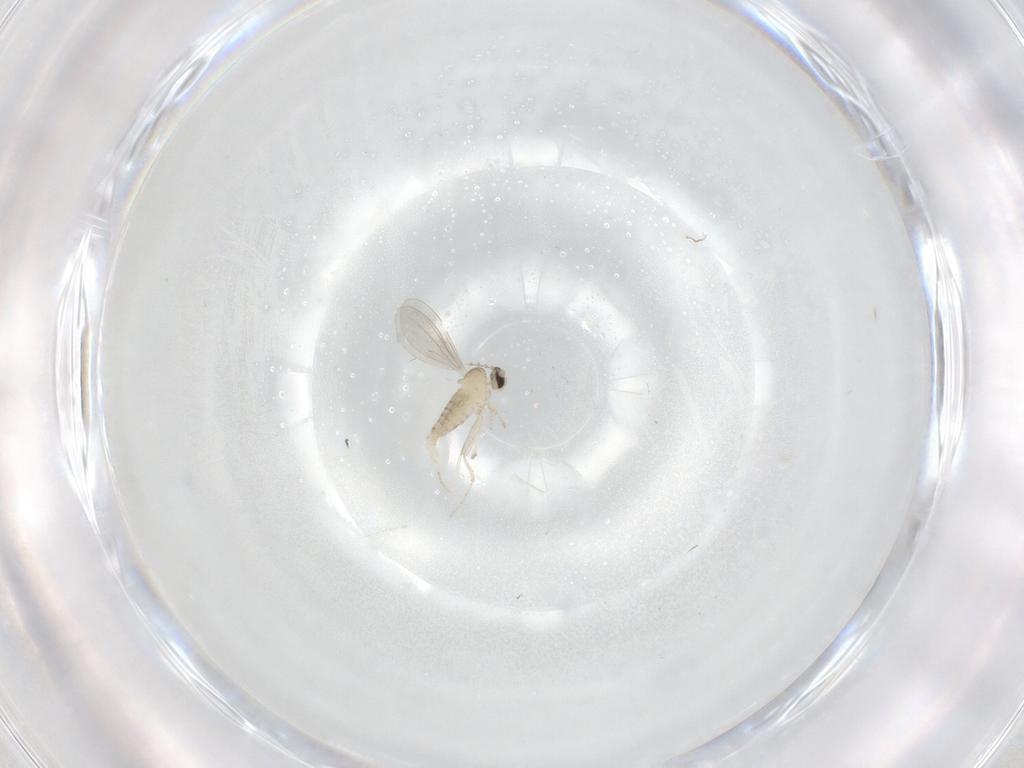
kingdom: Animalia
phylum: Arthropoda
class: Insecta
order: Diptera
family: Cecidomyiidae
